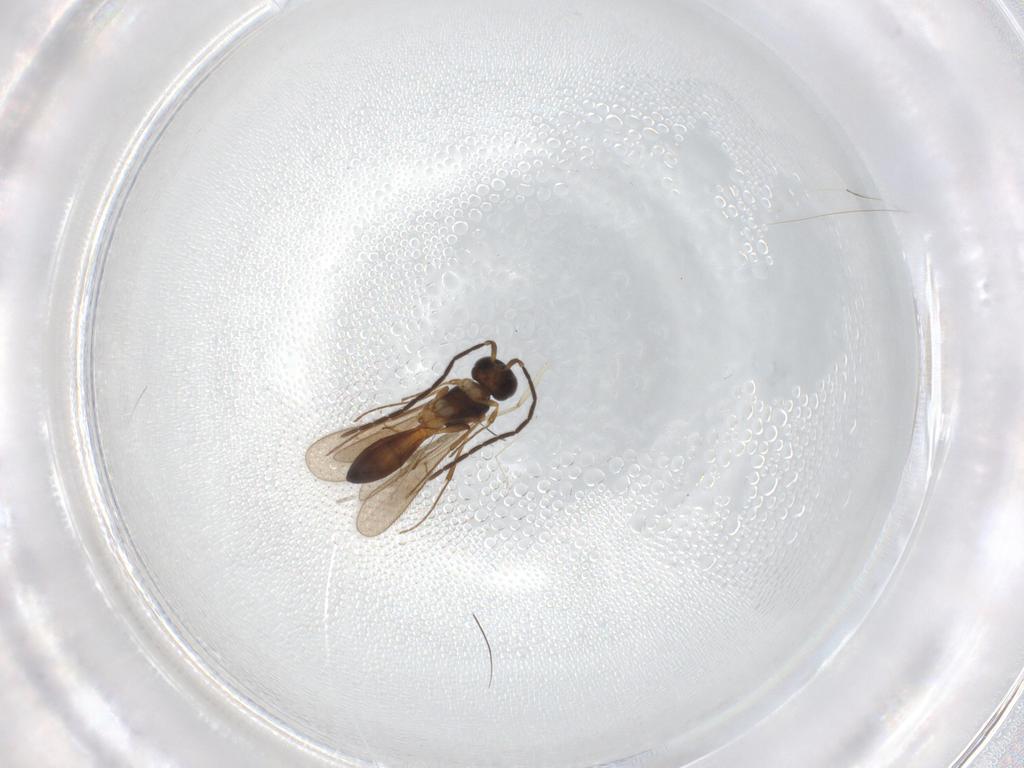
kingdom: Animalia
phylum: Arthropoda
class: Insecta
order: Hymenoptera
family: Scelionidae
